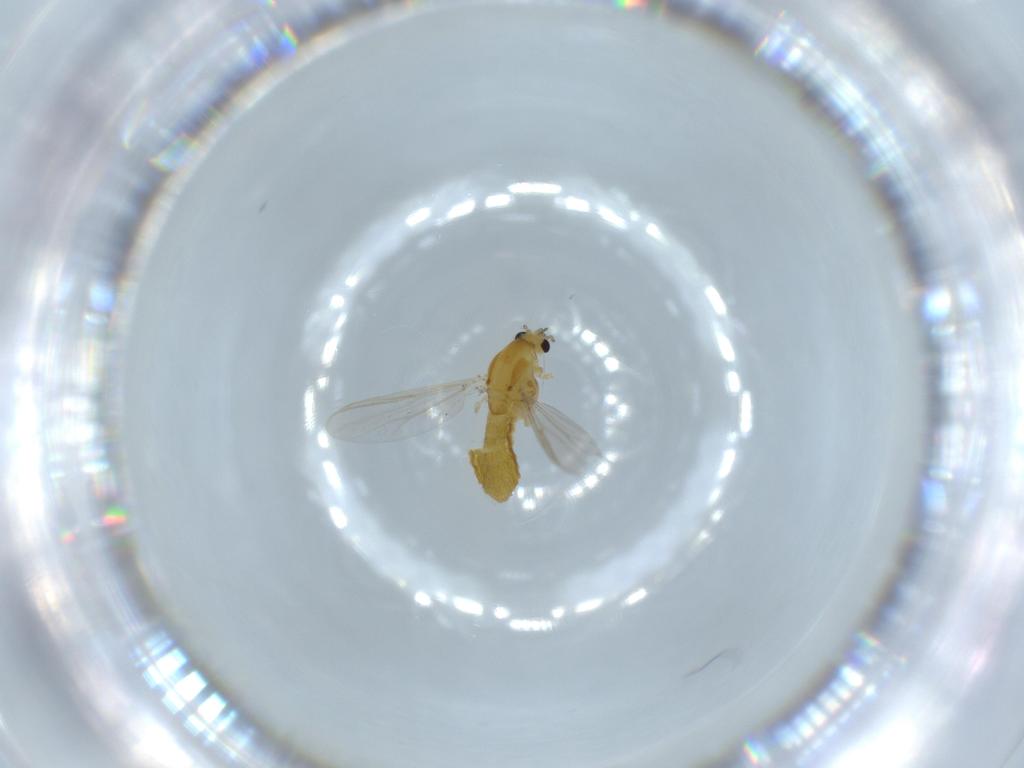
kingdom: Animalia
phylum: Arthropoda
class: Insecta
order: Diptera
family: Chironomidae
